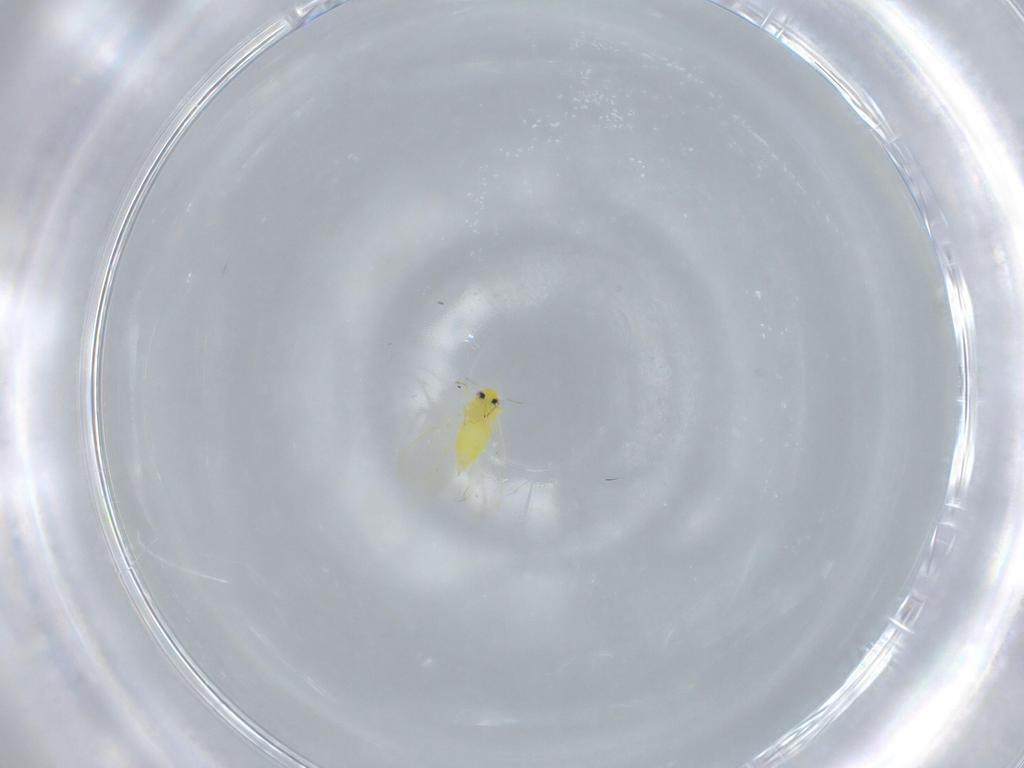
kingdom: Animalia
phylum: Arthropoda
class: Insecta
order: Hemiptera
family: Aleyrodidae
